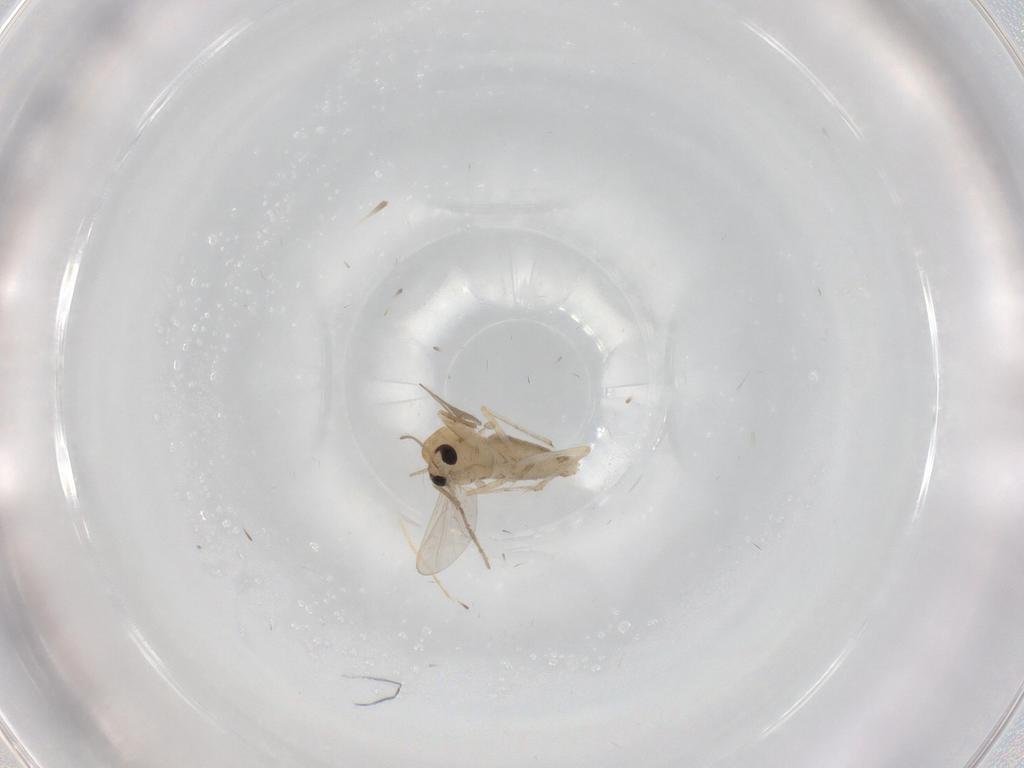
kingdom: Animalia
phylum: Arthropoda
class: Insecta
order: Diptera
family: Chironomidae
